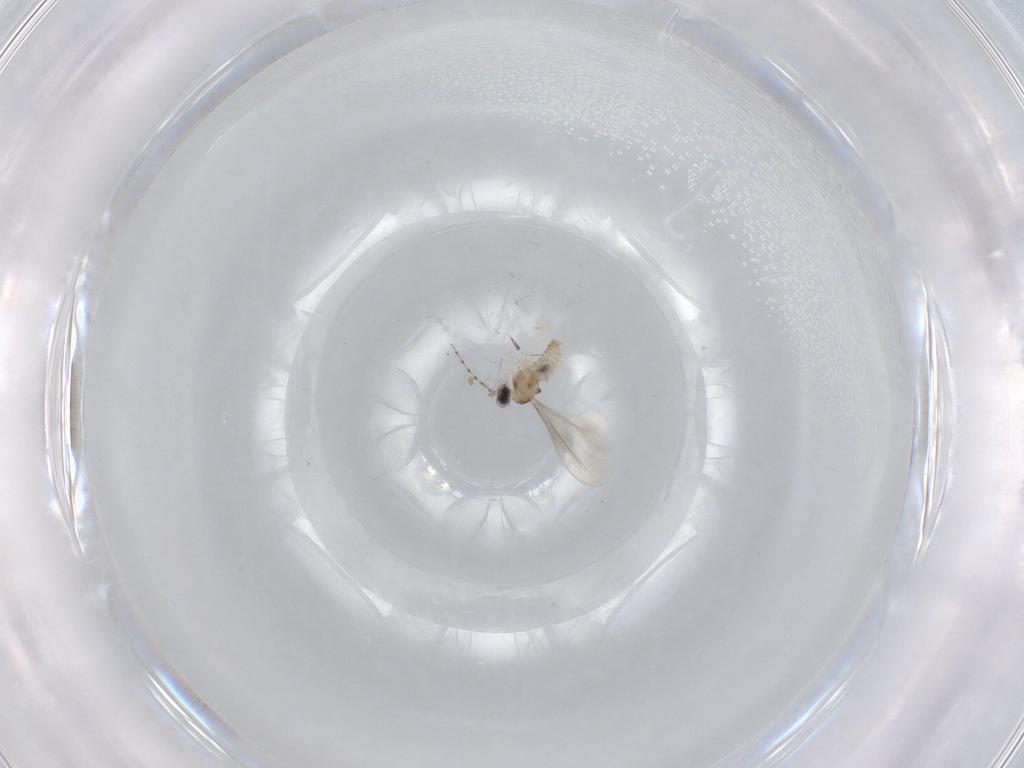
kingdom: Animalia
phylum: Arthropoda
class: Insecta
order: Diptera
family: Cecidomyiidae
